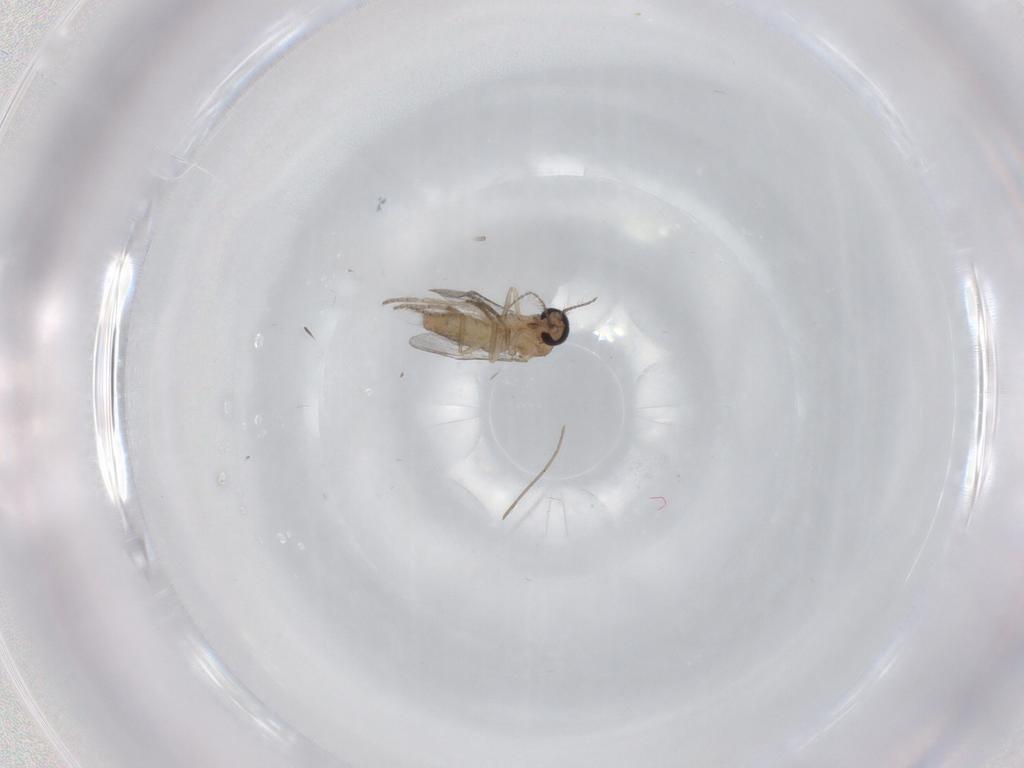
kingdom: Animalia
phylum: Arthropoda
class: Insecta
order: Diptera
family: Ceratopogonidae
